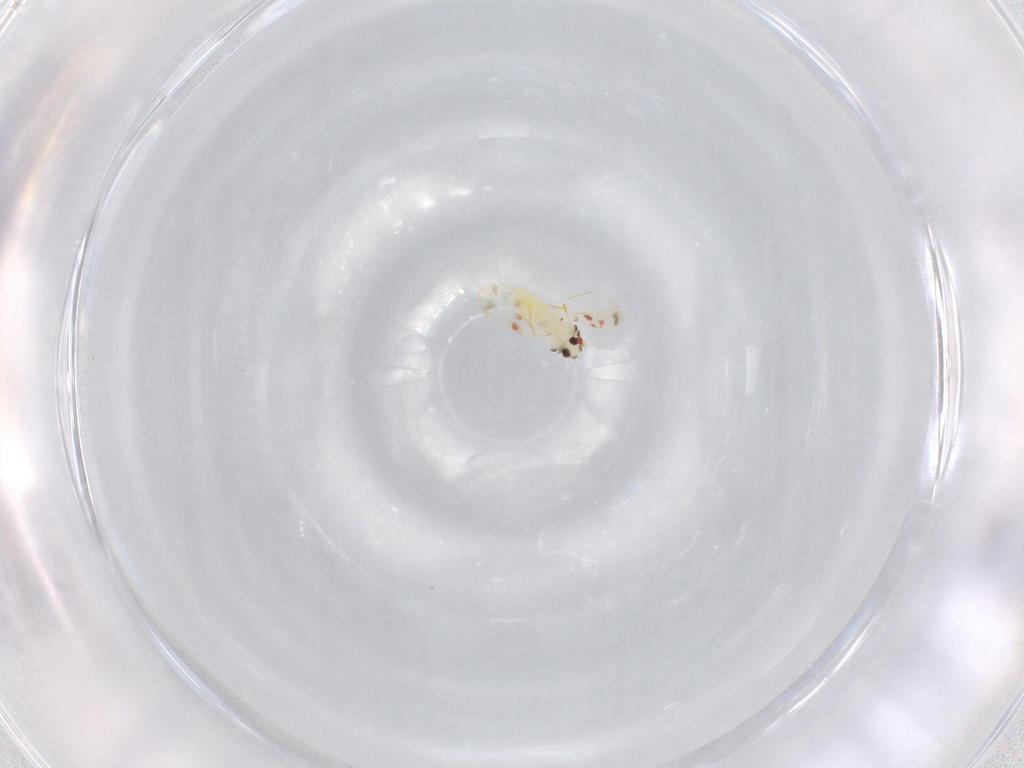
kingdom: Animalia
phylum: Arthropoda
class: Insecta
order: Hemiptera
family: Aleyrodidae
